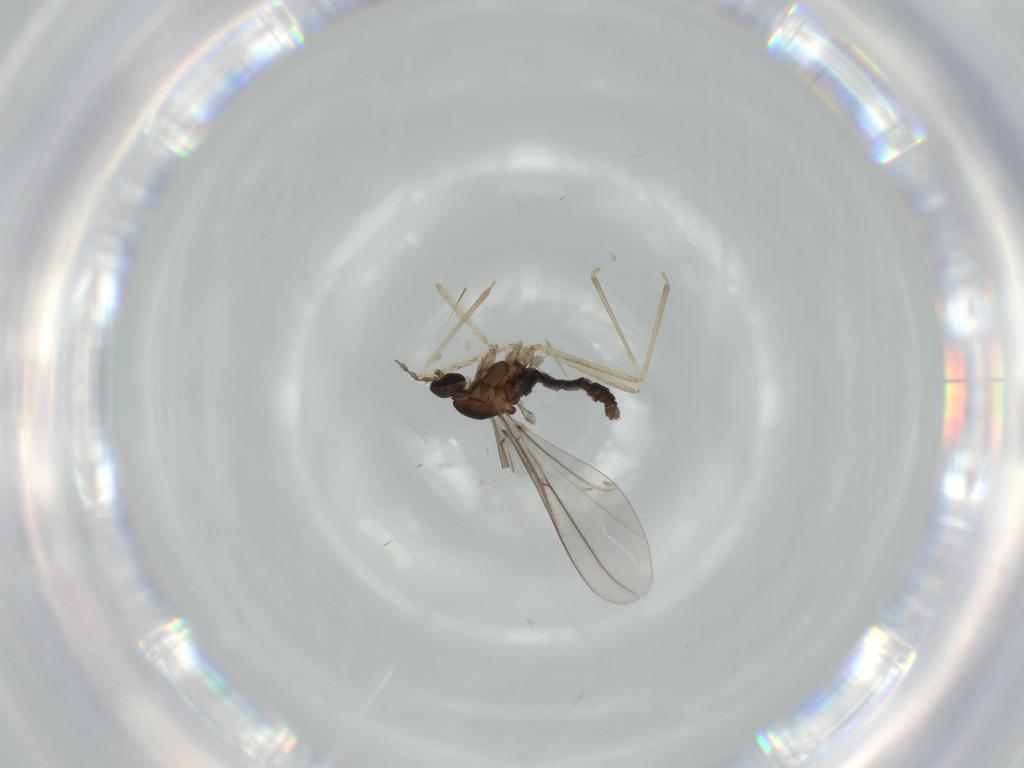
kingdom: Animalia
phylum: Arthropoda
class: Insecta
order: Diptera
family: Cecidomyiidae
